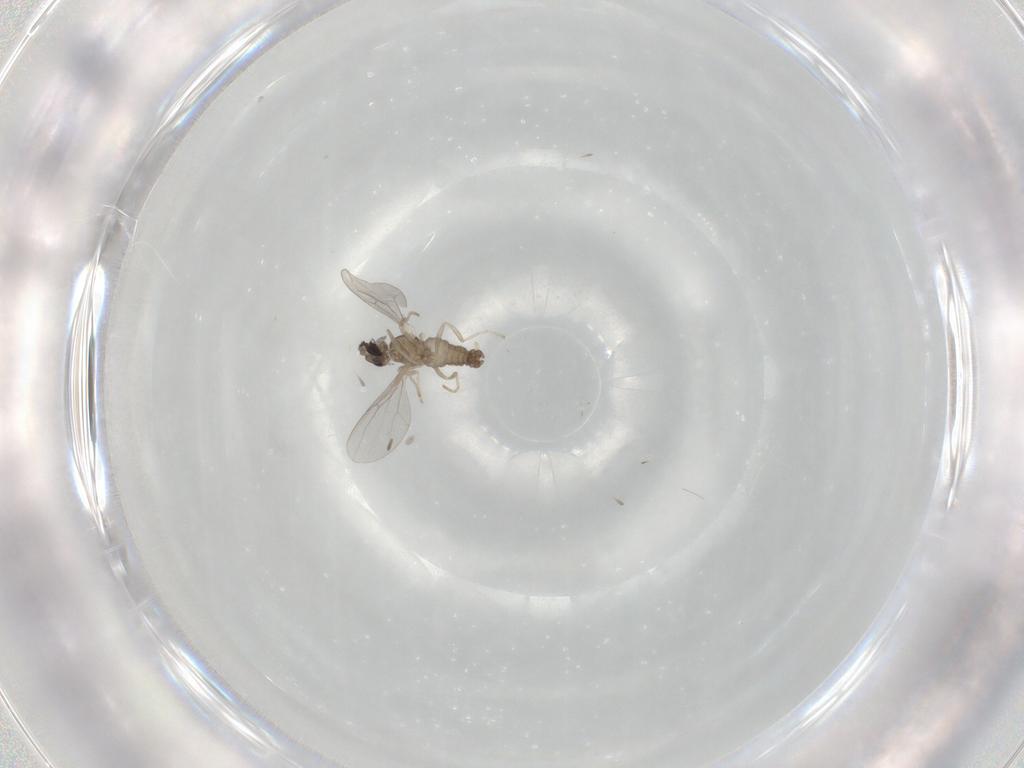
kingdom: Animalia
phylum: Arthropoda
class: Insecta
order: Diptera
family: Cecidomyiidae
